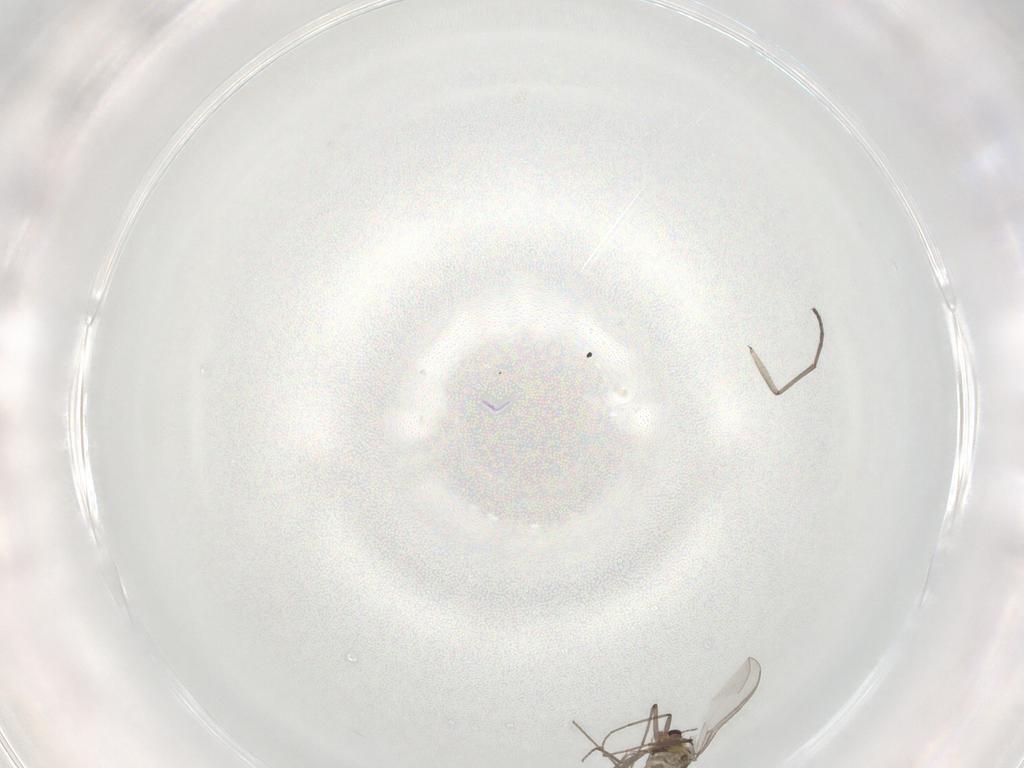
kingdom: Animalia
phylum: Arthropoda
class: Insecta
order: Diptera
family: Chironomidae
